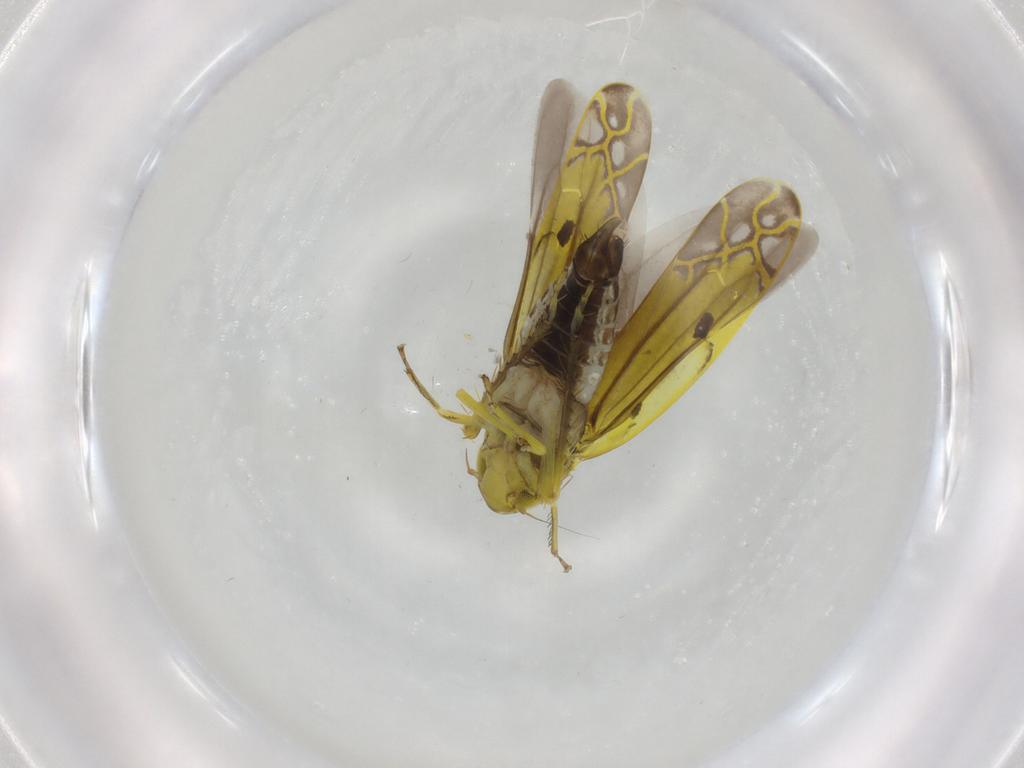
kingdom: Animalia
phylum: Arthropoda
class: Insecta
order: Hemiptera
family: Cicadellidae
